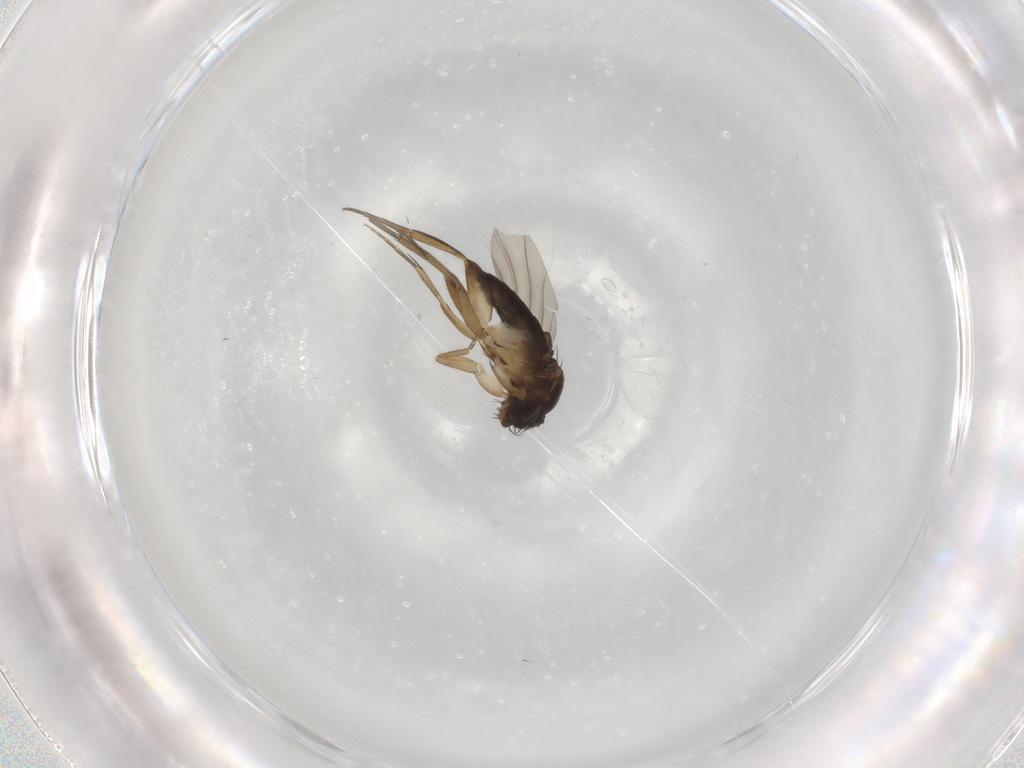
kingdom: Animalia
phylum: Arthropoda
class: Insecta
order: Diptera
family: Phoridae
